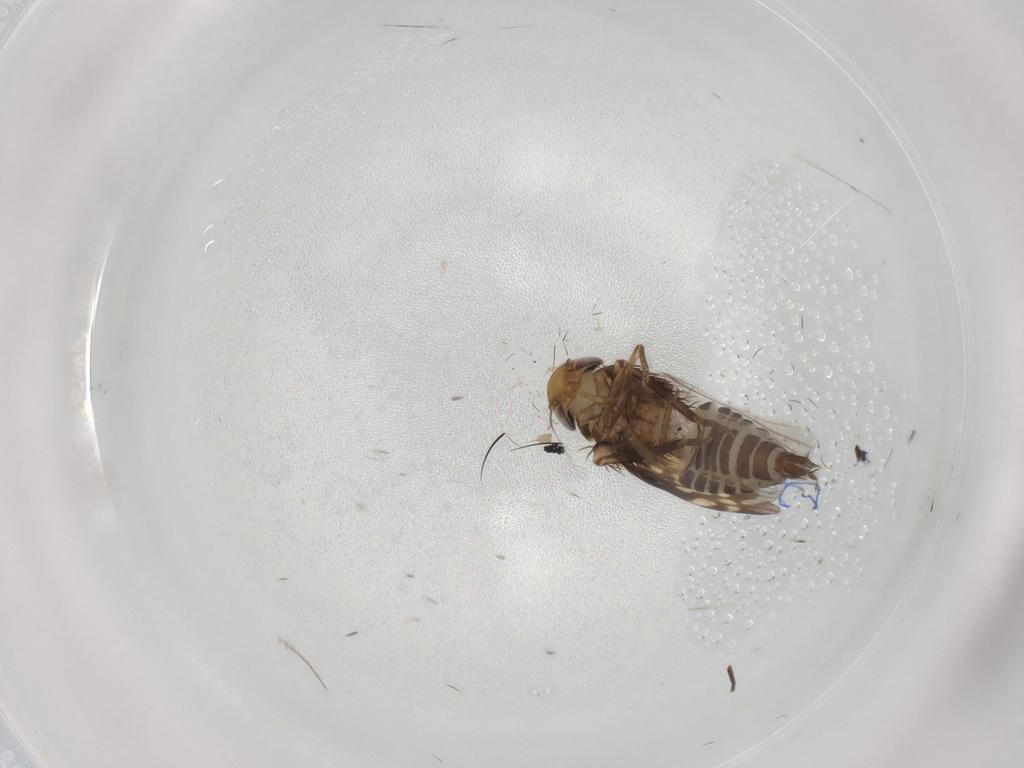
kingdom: Animalia
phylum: Arthropoda
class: Insecta
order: Hemiptera
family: Cicadellidae
